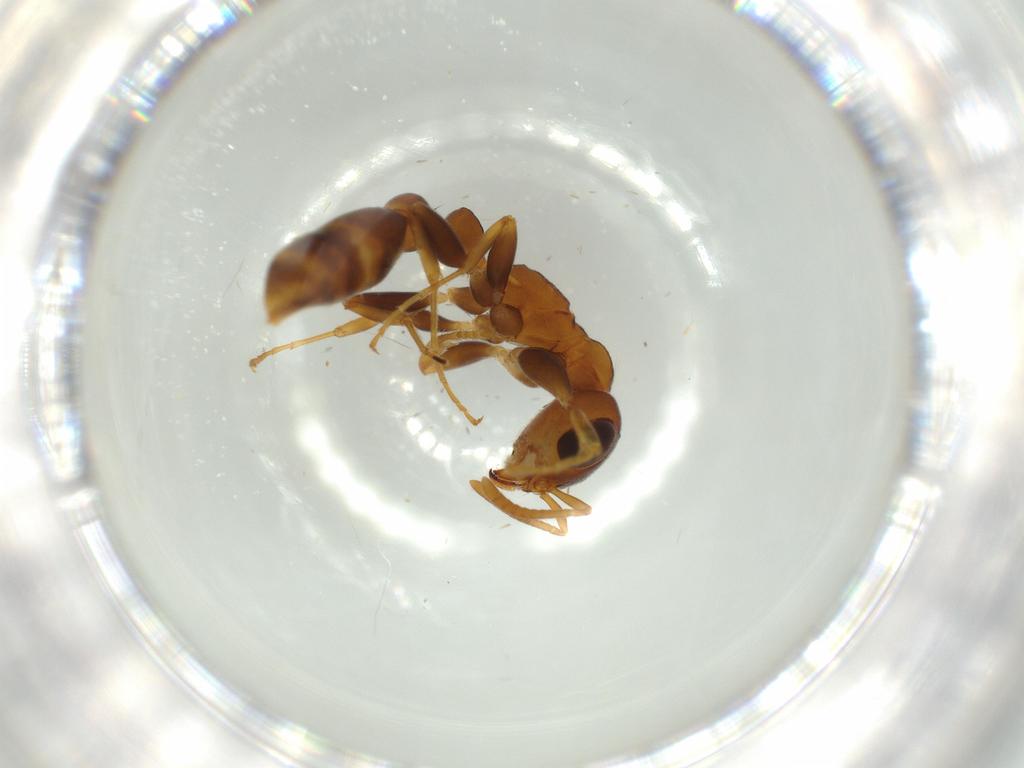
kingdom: Animalia
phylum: Arthropoda
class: Insecta
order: Hymenoptera
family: Formicidae
